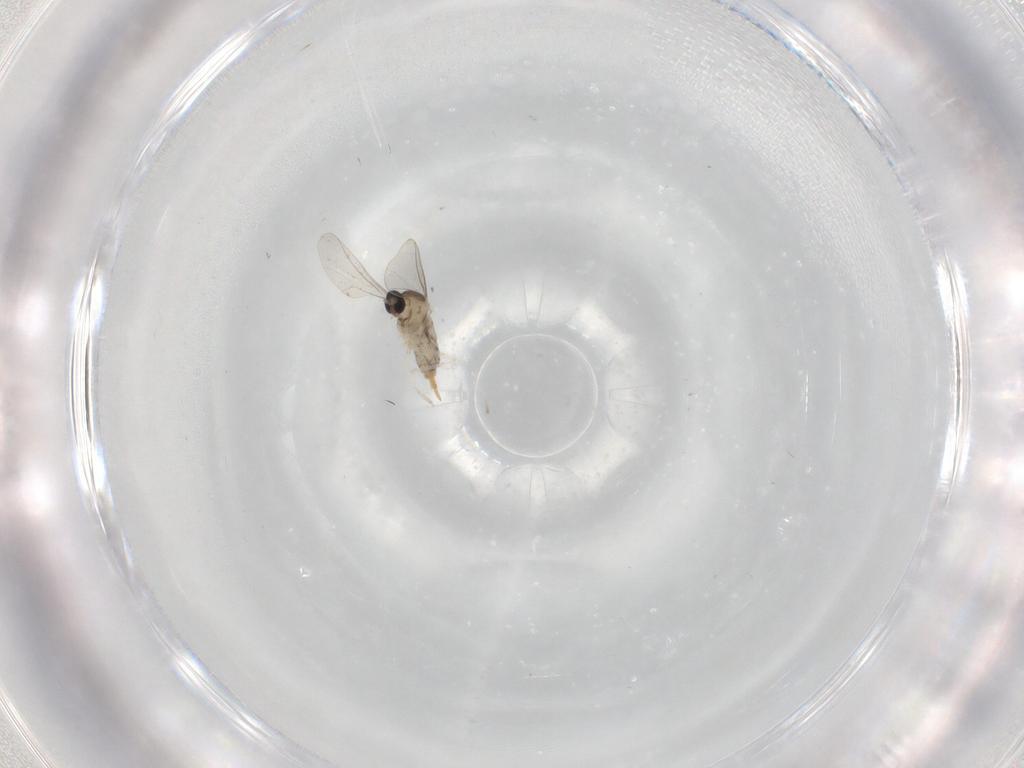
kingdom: Animalia
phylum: Arthropoda
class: Insecta
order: Diptera
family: Cecidomyiidae
